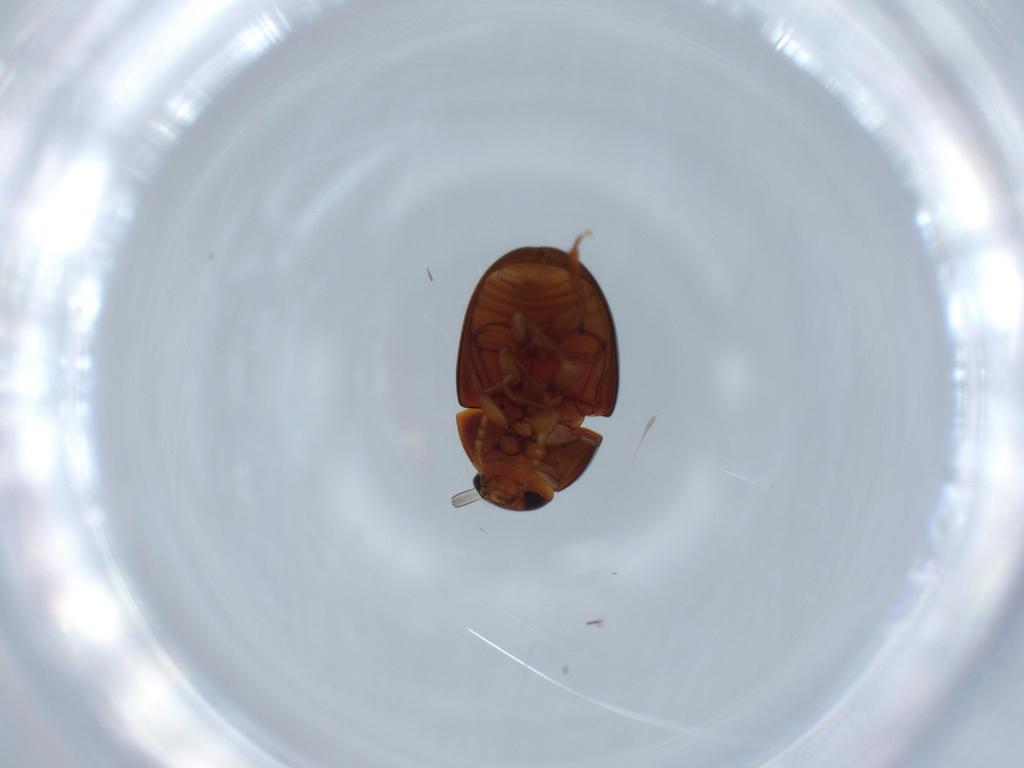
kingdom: Animalia
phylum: Arthropoda
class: Insecta
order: Coleoptera
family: Phalacridae
